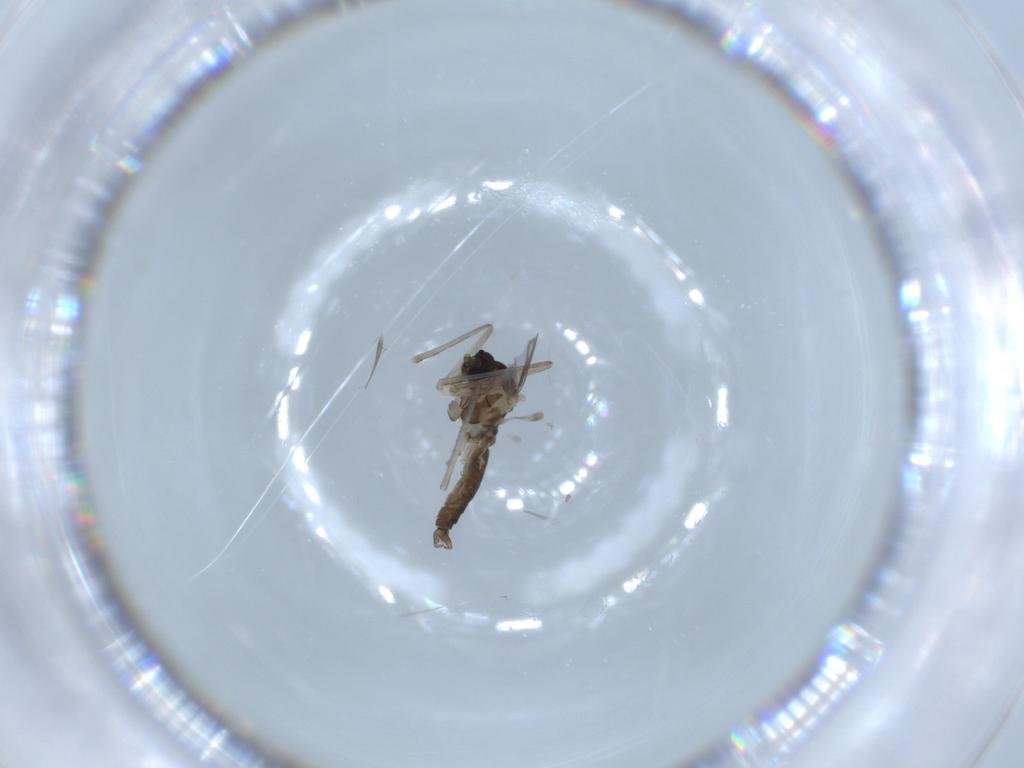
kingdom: Animalia
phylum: Arthropoda
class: Insecta
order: Diptera
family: Cecidomyiidae
